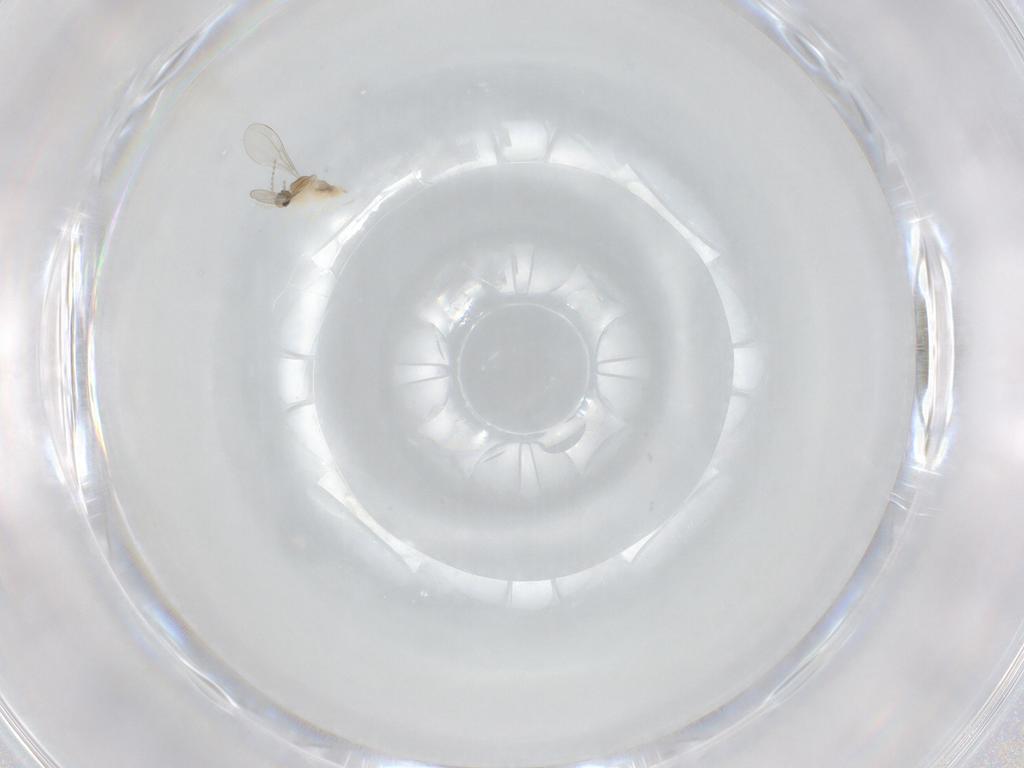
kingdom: Animalia
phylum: Arthropoda
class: Insecta
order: Diptera
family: Cecidomyiidae
